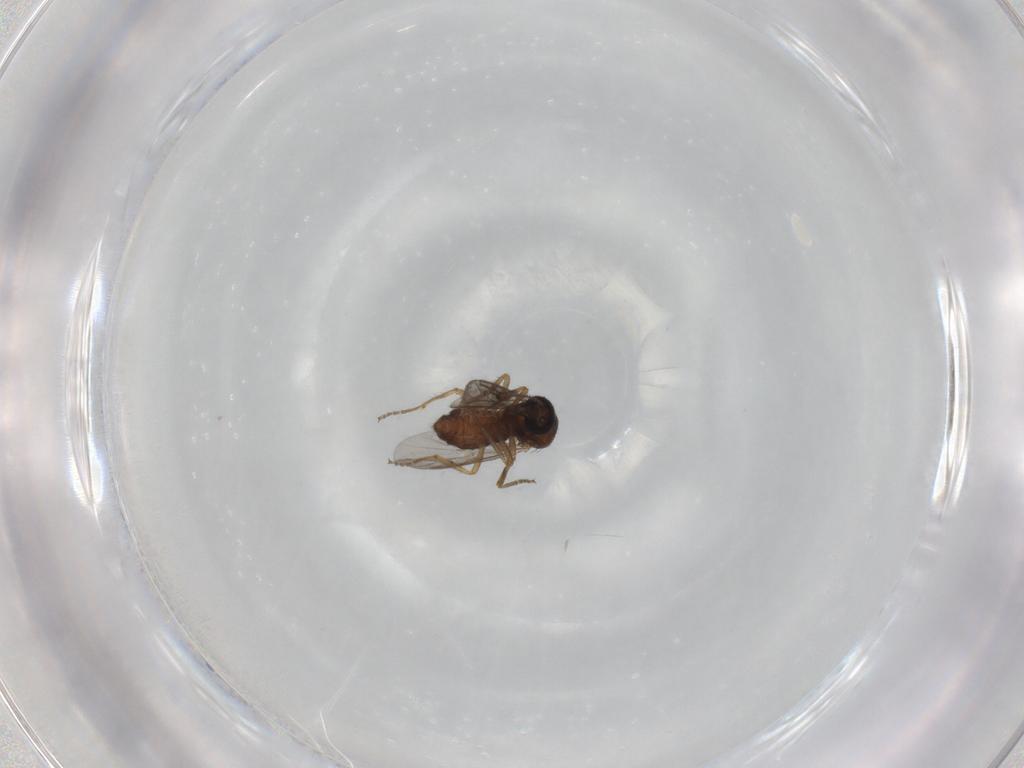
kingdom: Animalia
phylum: Arthropoda
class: Insecta
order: Diptera
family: Ceratopogonidae
